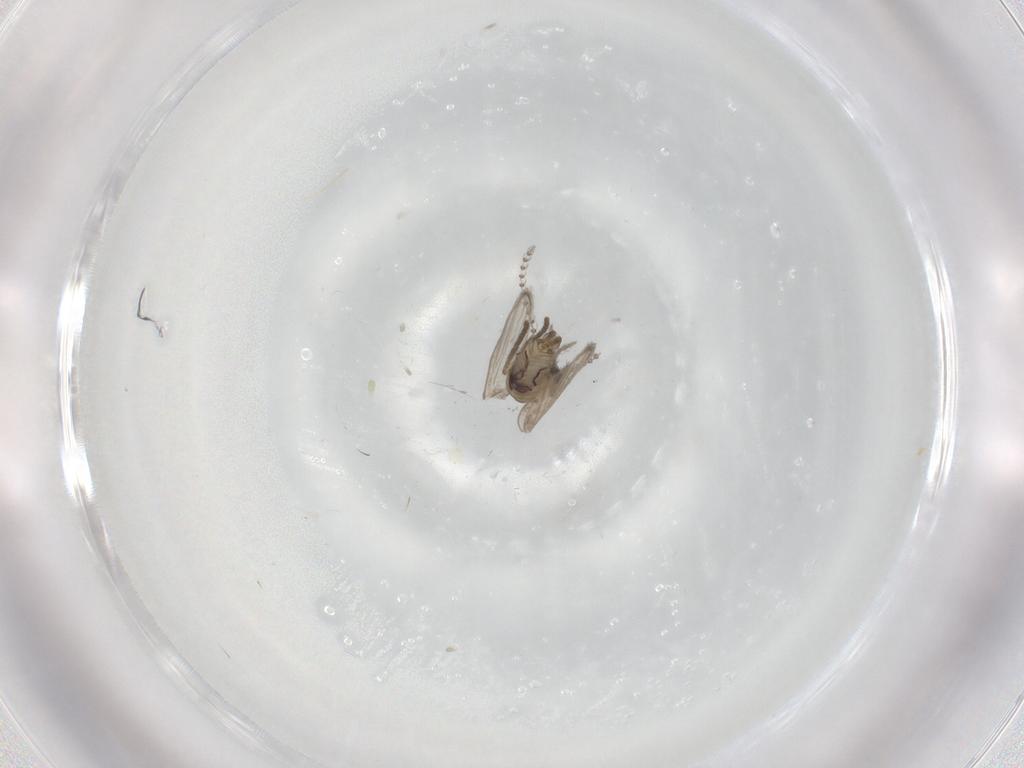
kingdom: Animalia
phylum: Arthropoda
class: Insecta
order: Diptera
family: Psychodidae
